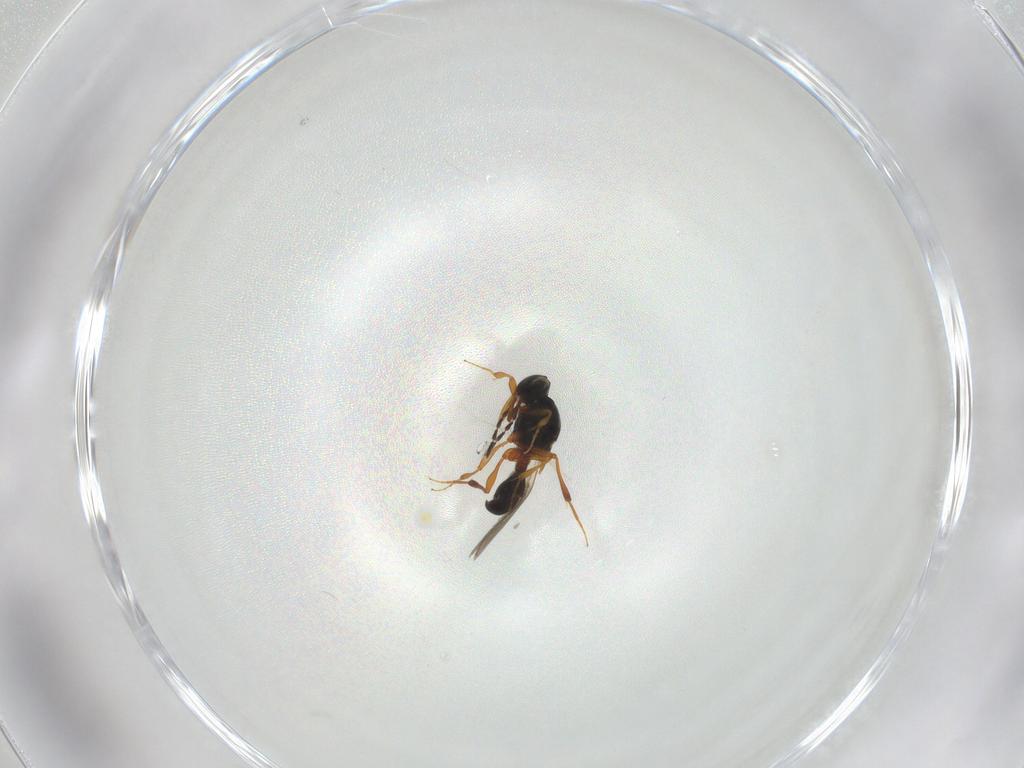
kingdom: Animalia
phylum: Arthropoda
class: Insecta
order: Hymenoptera
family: Platygastridae
